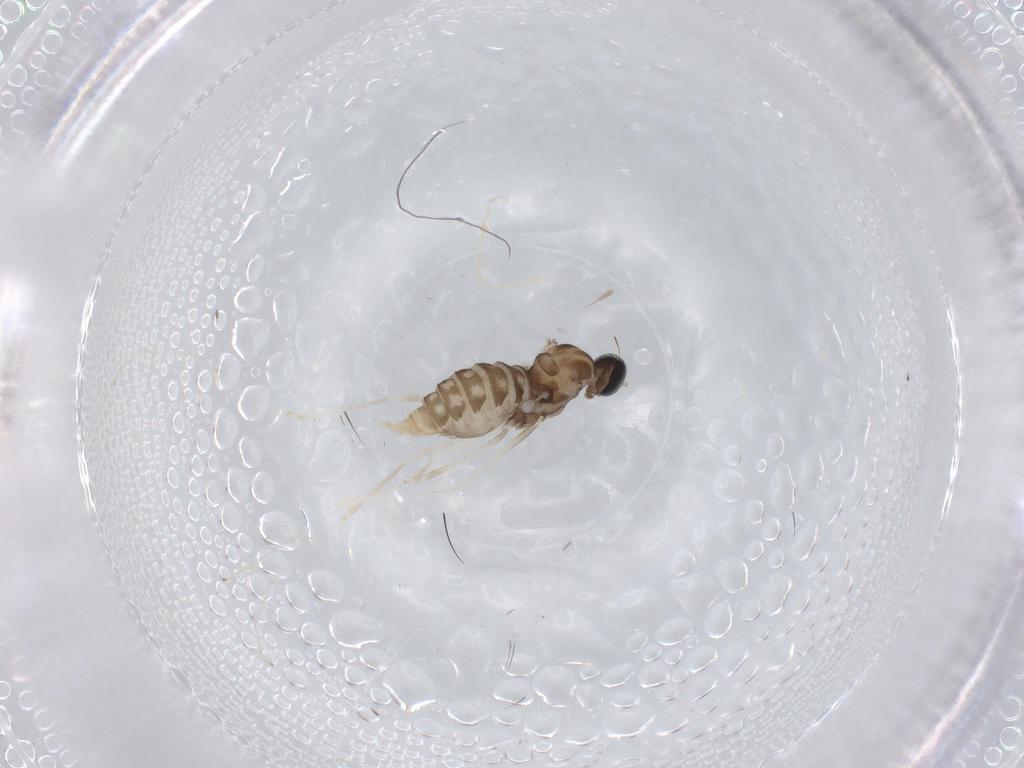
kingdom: Animalia
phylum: Arthropoda
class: Insecta
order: Diptera
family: Cecidomyiidae
